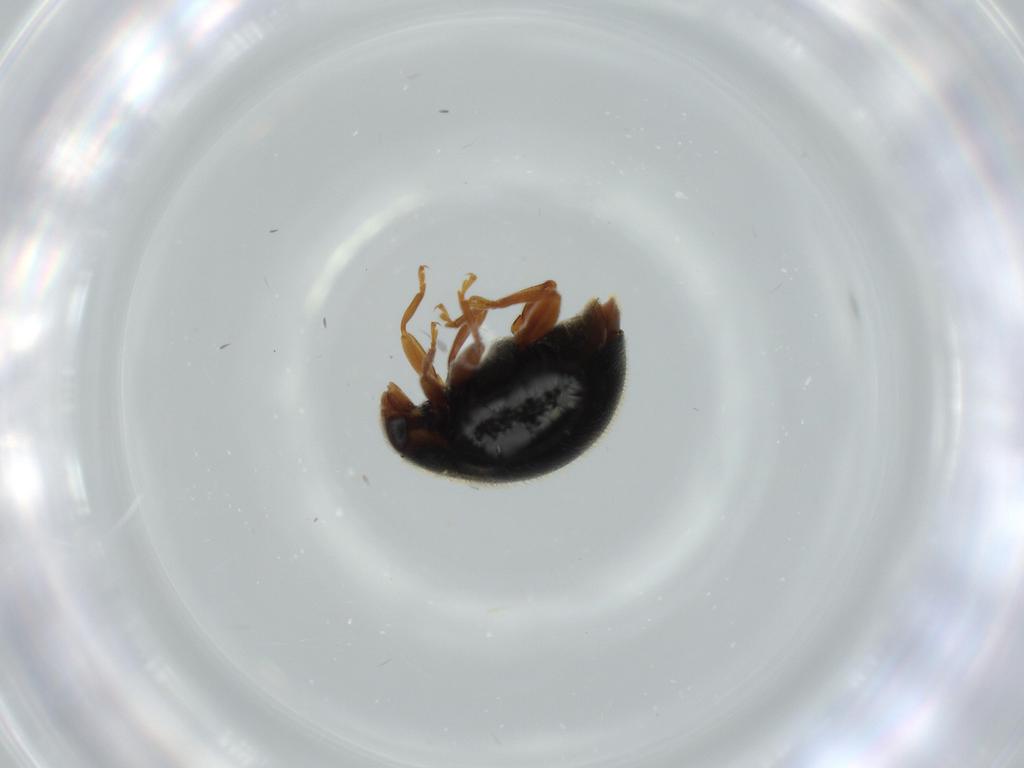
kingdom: Animalia
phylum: Arthropoda
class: Insecta
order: Coleoptera
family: Coccinellidae
